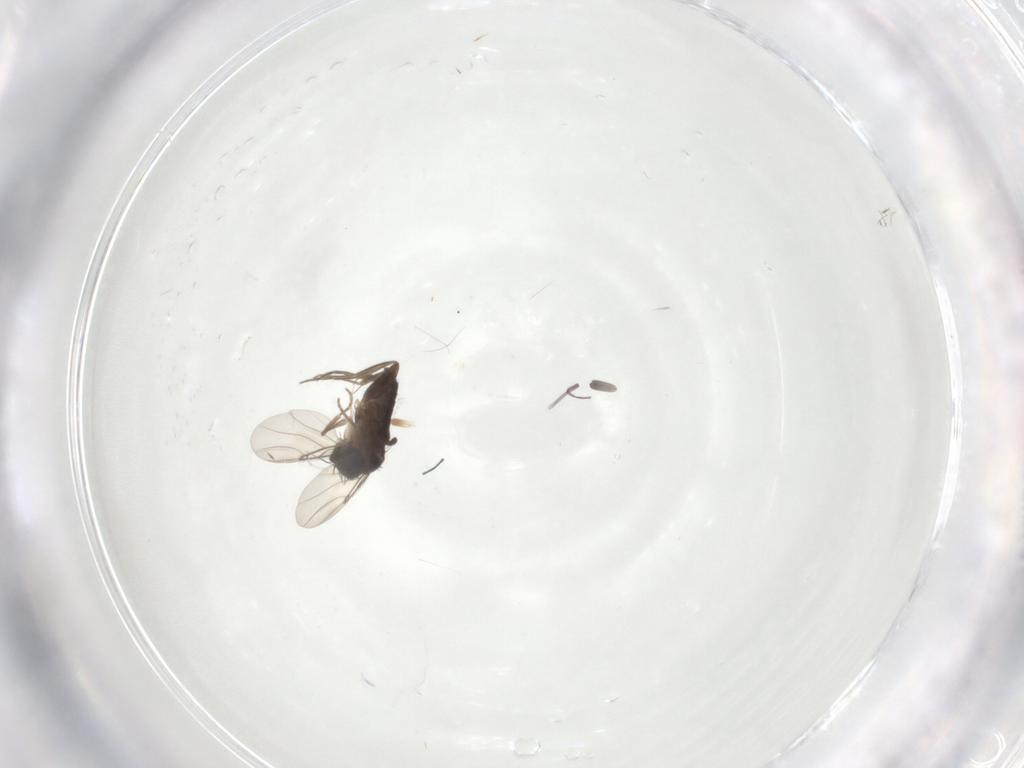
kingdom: Animalia
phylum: Arthropoda
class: Insecta
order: Diptera
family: Phoridae
